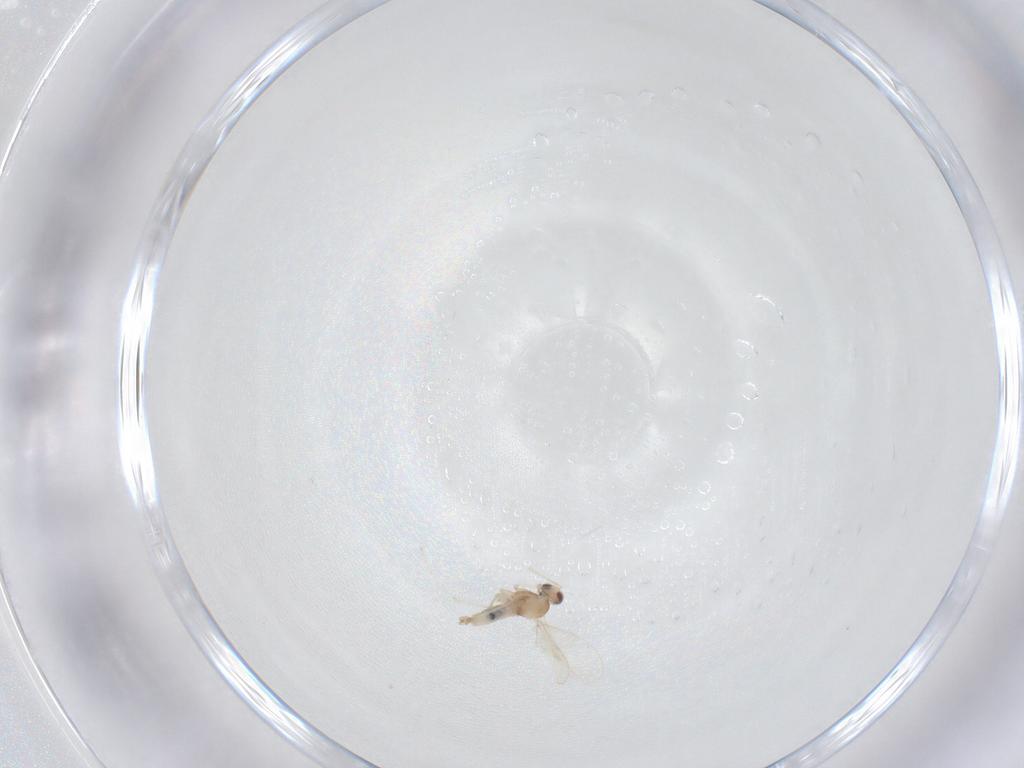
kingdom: Animalia
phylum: Arthropoda
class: Insecta
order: Diptera
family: Cecidomyiidae
